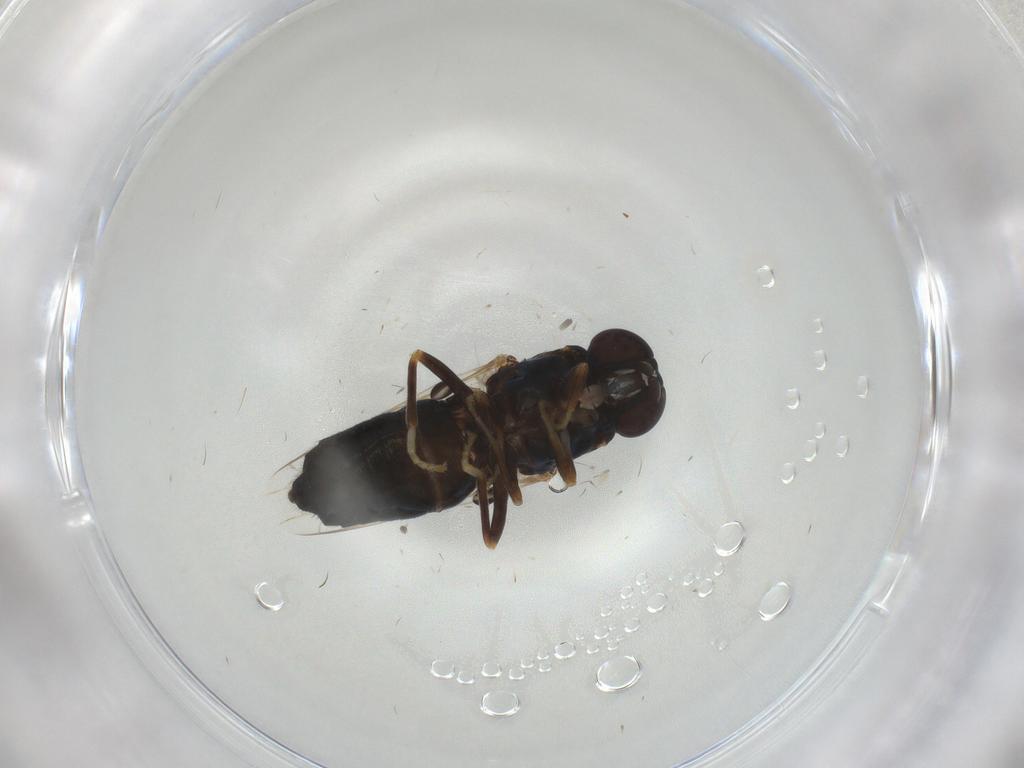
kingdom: Animalia
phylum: Arthropoda
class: Insecta
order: Diptera
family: Scenopinidae
